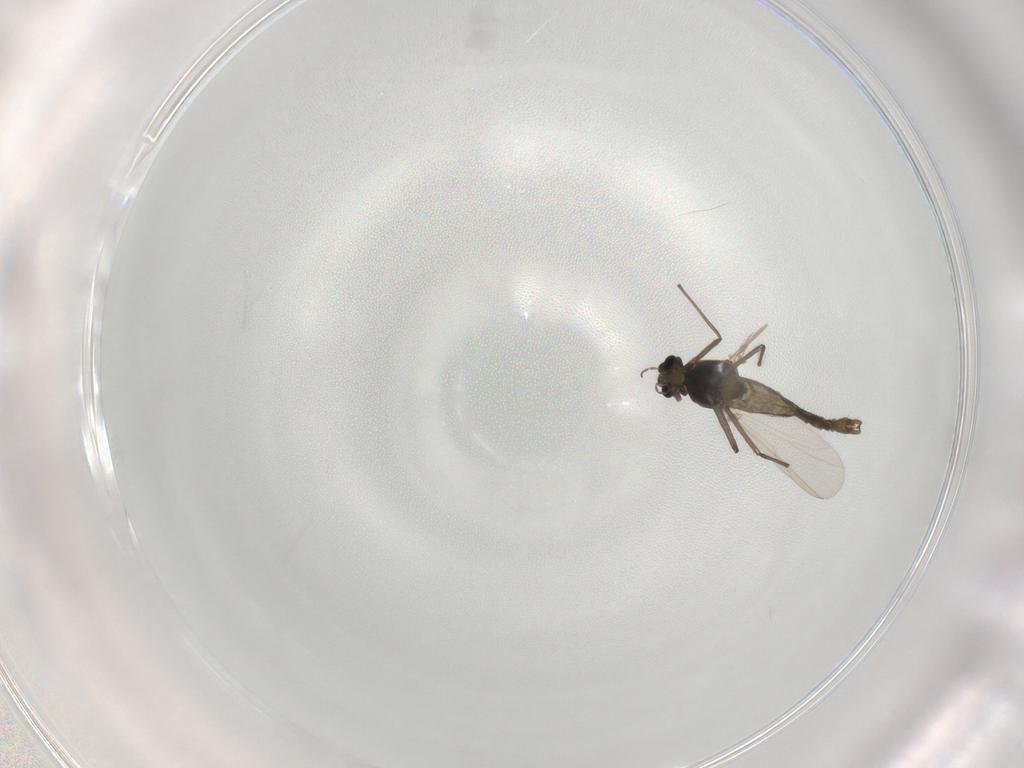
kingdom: Animalia
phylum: Arthropoda
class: Insecta
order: Diptera
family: Chironomidae
